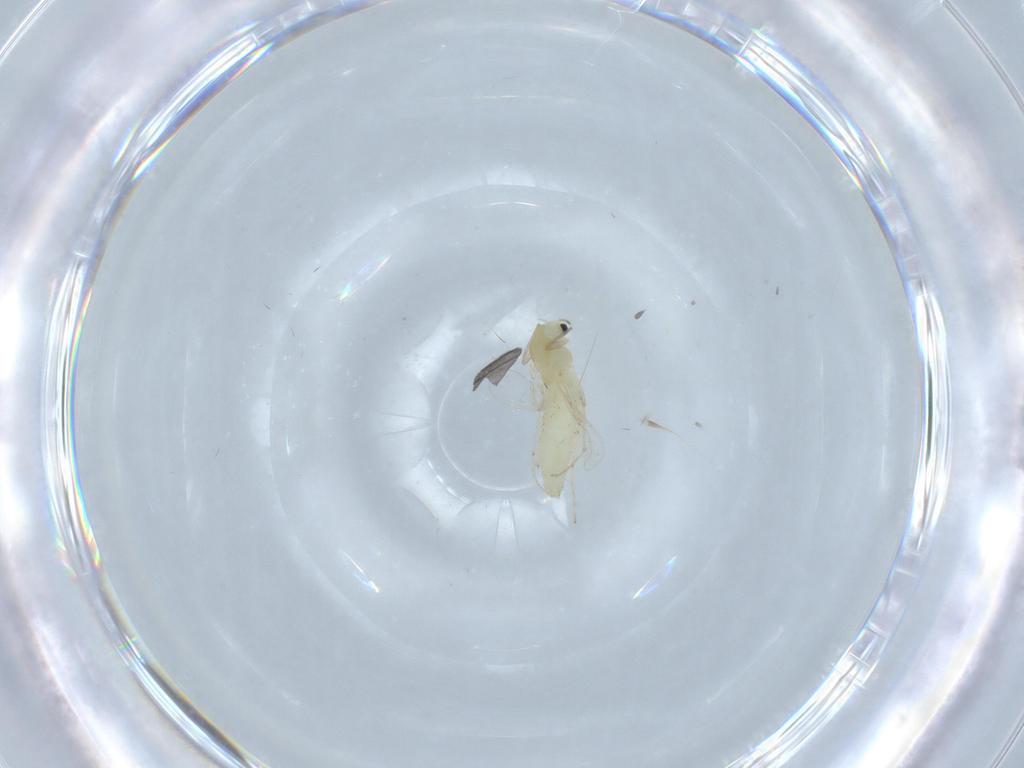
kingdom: Animalia
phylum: Arthropoda
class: Insecta
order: Diptera
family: Chironomidae
